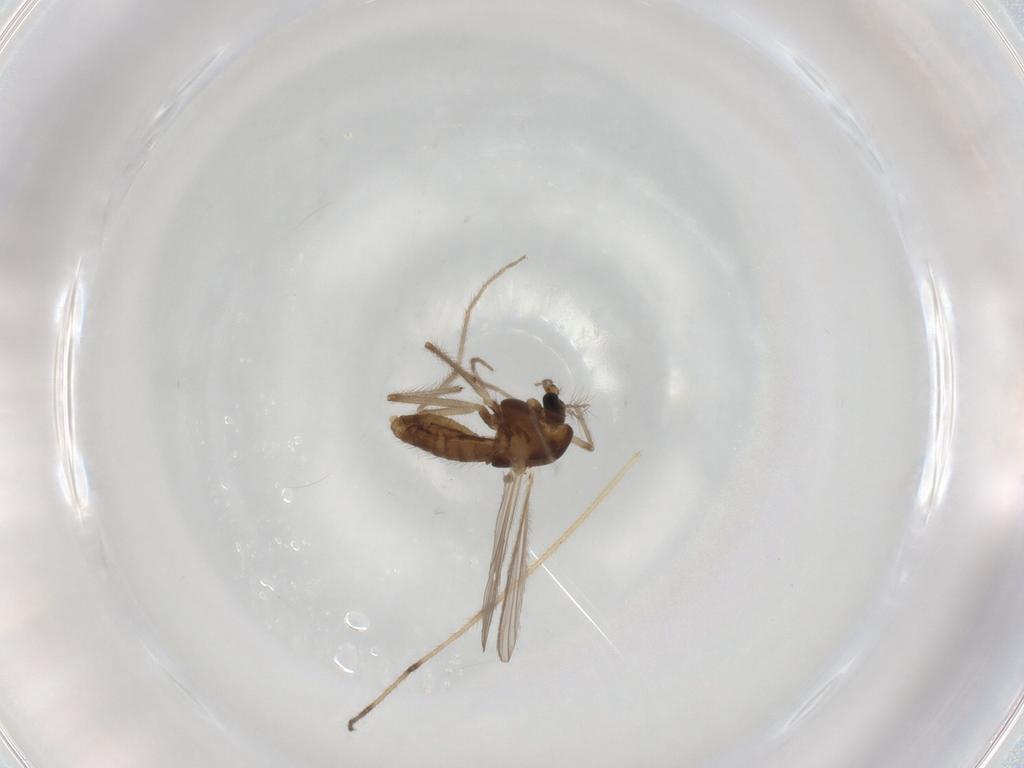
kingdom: Animalia
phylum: Arthropoda
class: Insecta
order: Diptera
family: Chironomidae
